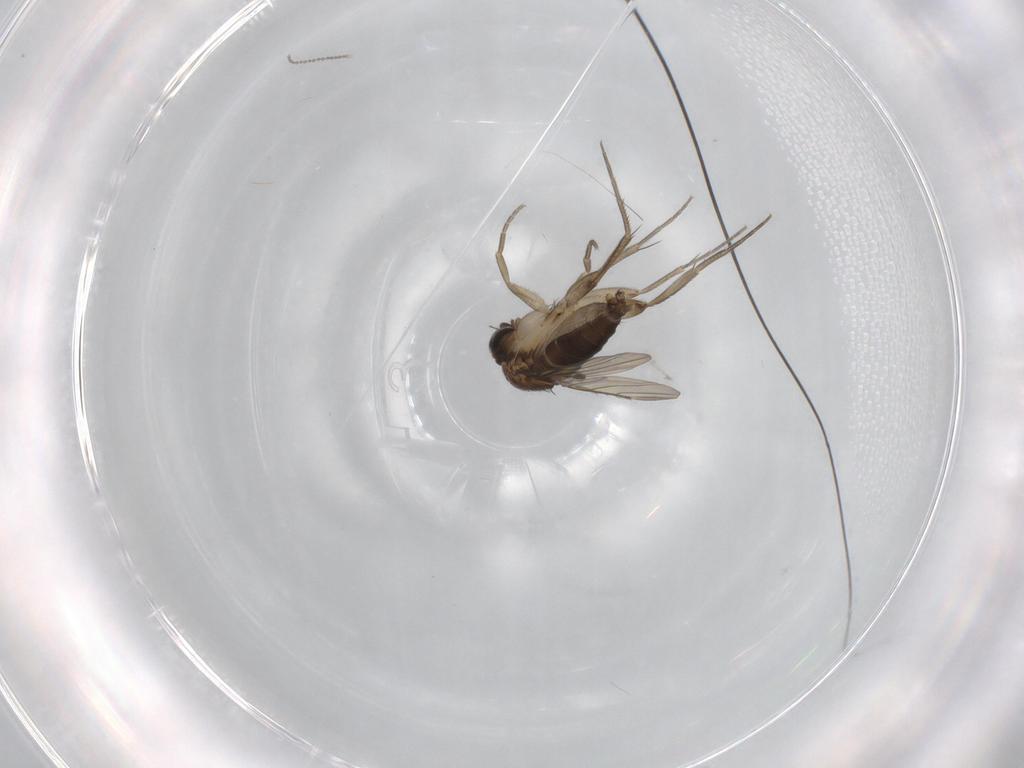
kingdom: Animalia
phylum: Arthropoda
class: Insecta
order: Diptera
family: Phoridae
